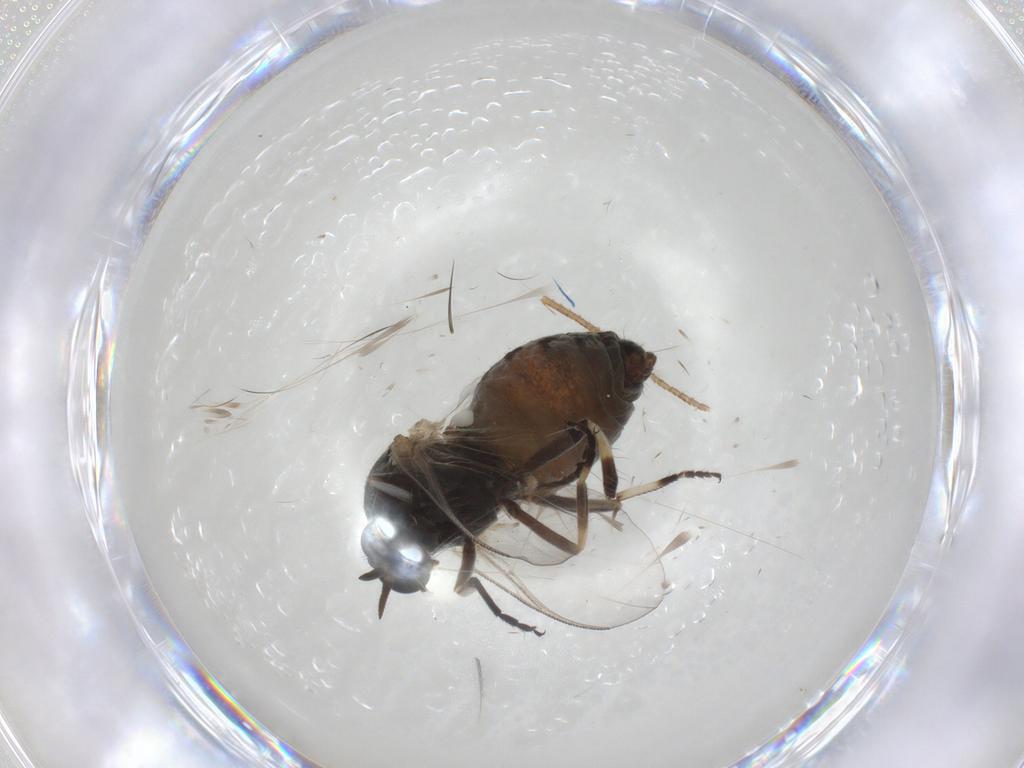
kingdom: Animalia
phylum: Arthropoda
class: Insecta
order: Diptera
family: Simuliidae
